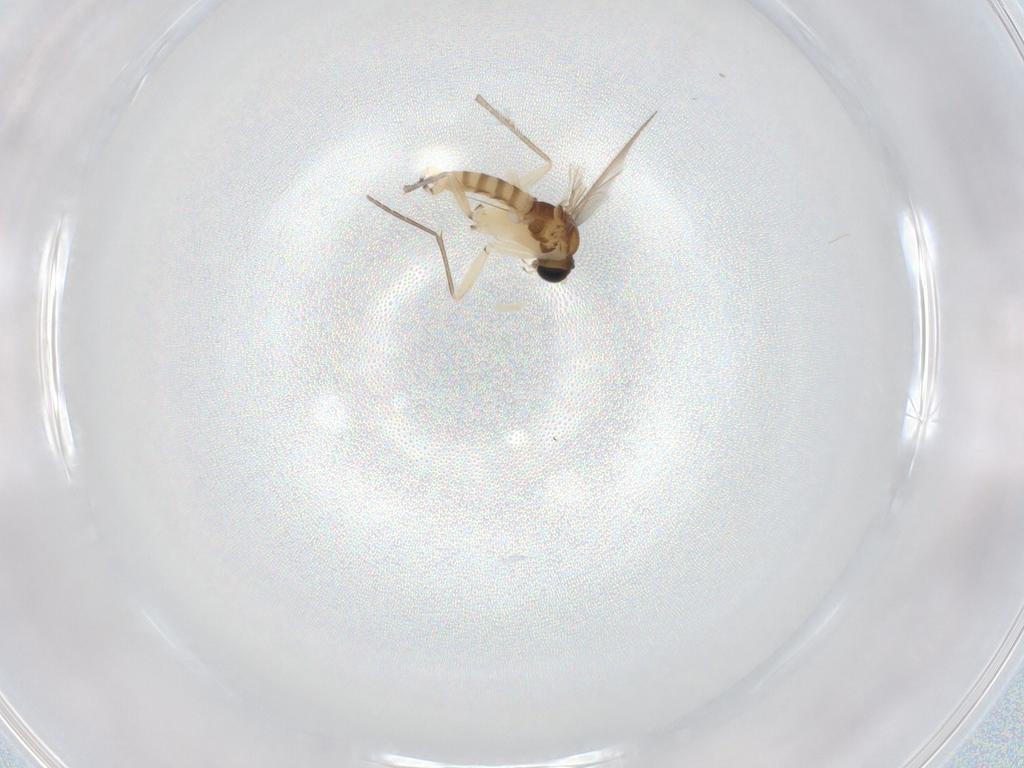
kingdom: Animalia
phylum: Arthropoda
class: Insecta
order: Diptera
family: Sciaridae
